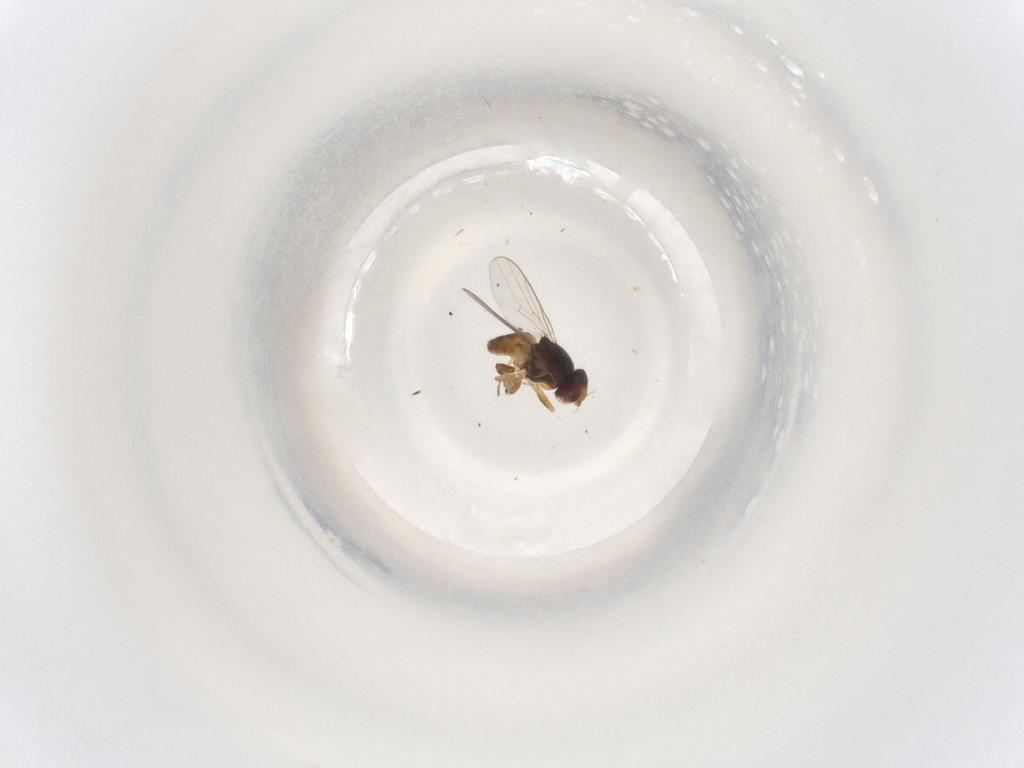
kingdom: Animalia
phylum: Arthropoda
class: Insecta
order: Diptera
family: Chloropidae
